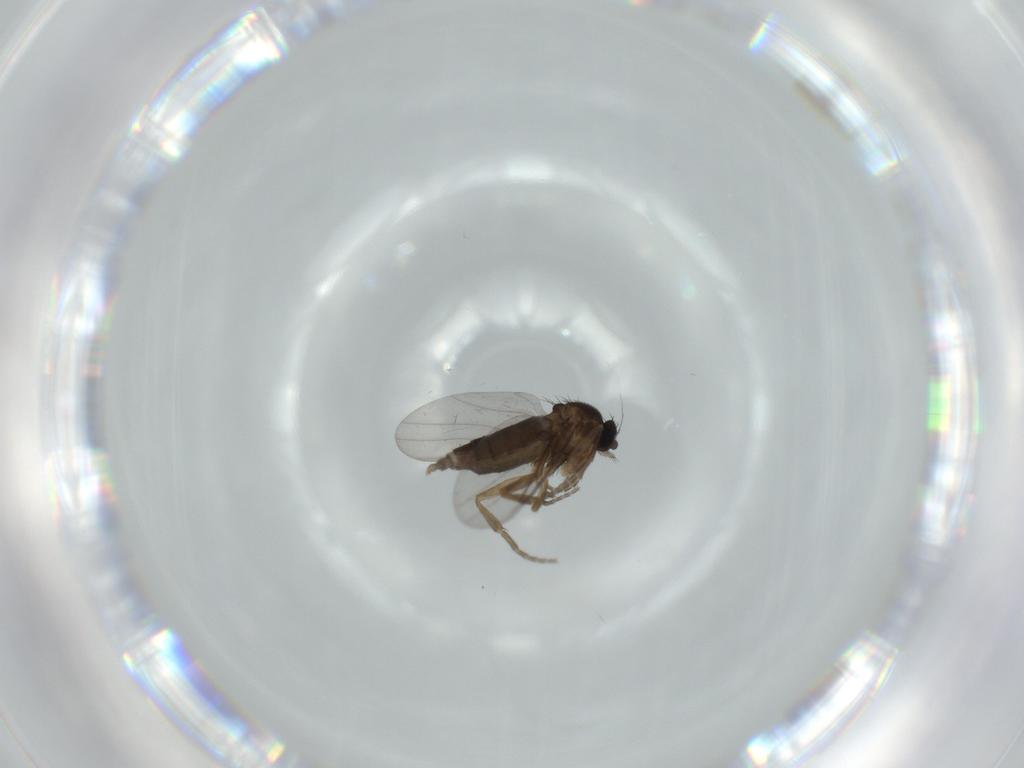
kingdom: Animalia
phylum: Arthropoda
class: Insecta
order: Diptera
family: Phoridae
